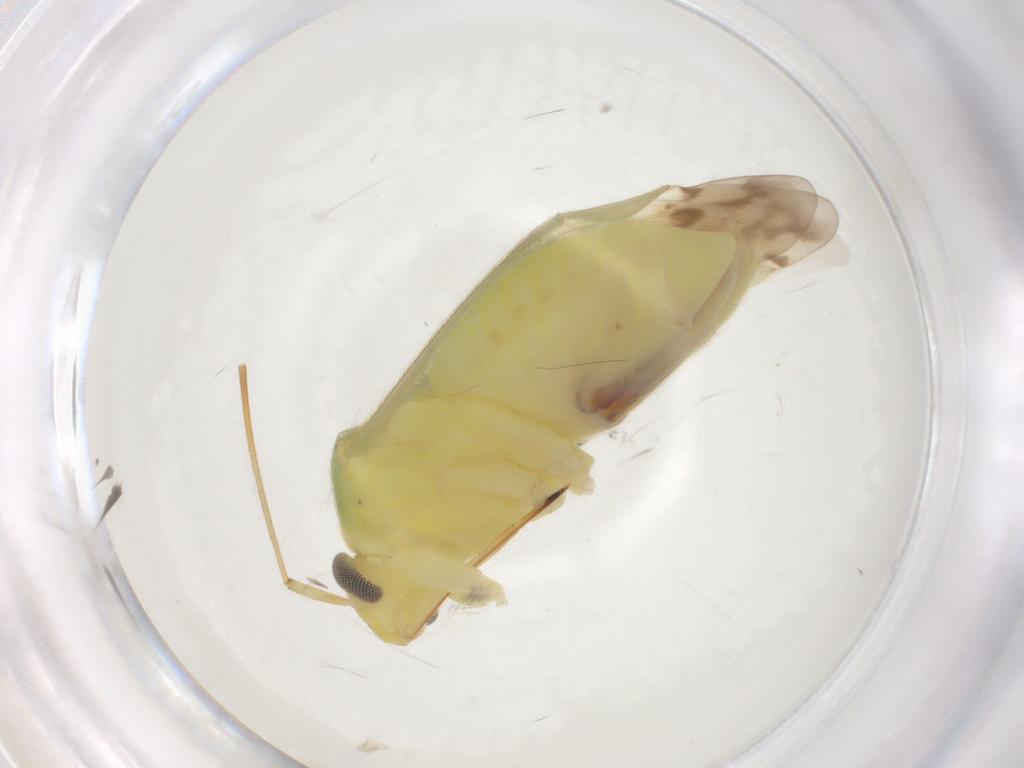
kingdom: Animalia
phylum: Arthropoda
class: Insecta
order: Hemiptera
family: Miridae
